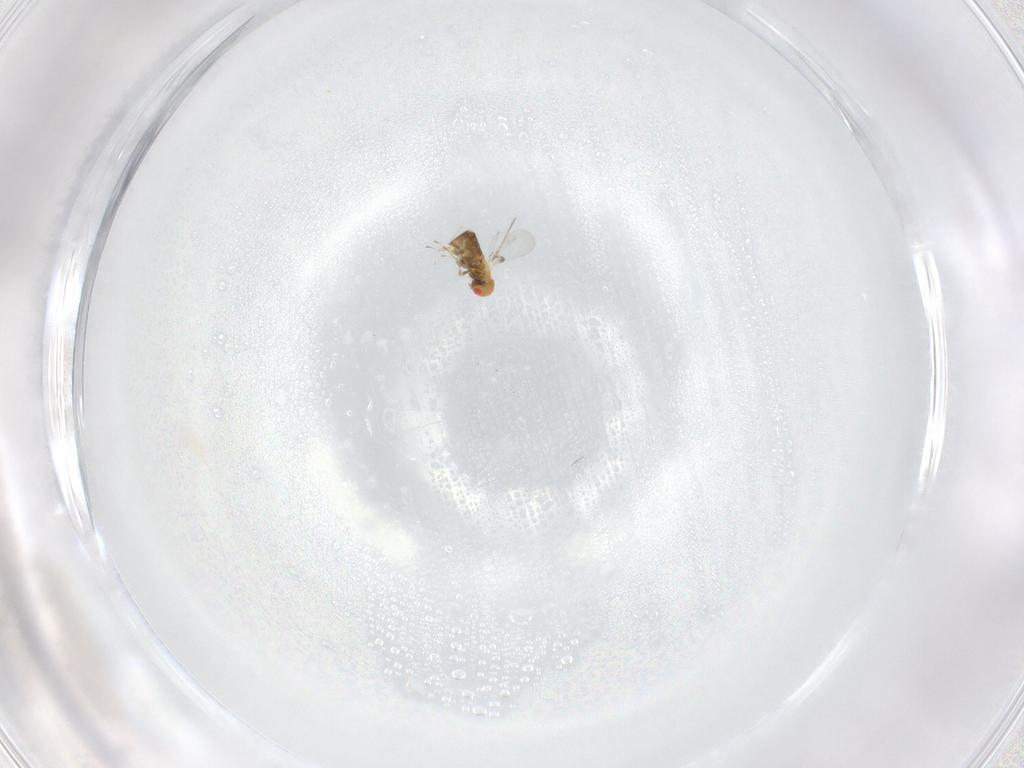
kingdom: Animalia
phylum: Arthropoda
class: Insecta
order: Hymenoptera
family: Trichogrammatidae
